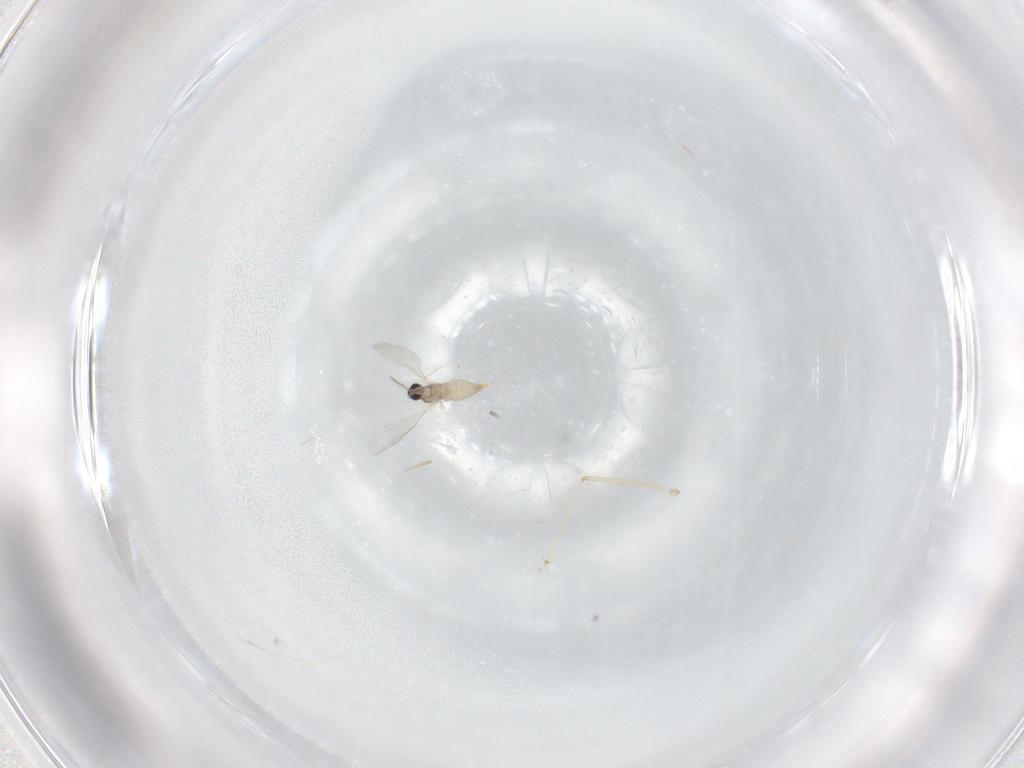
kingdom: Animalia
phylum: Arthropoda
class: Insecta
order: Diptera
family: Cecidomyiidae
